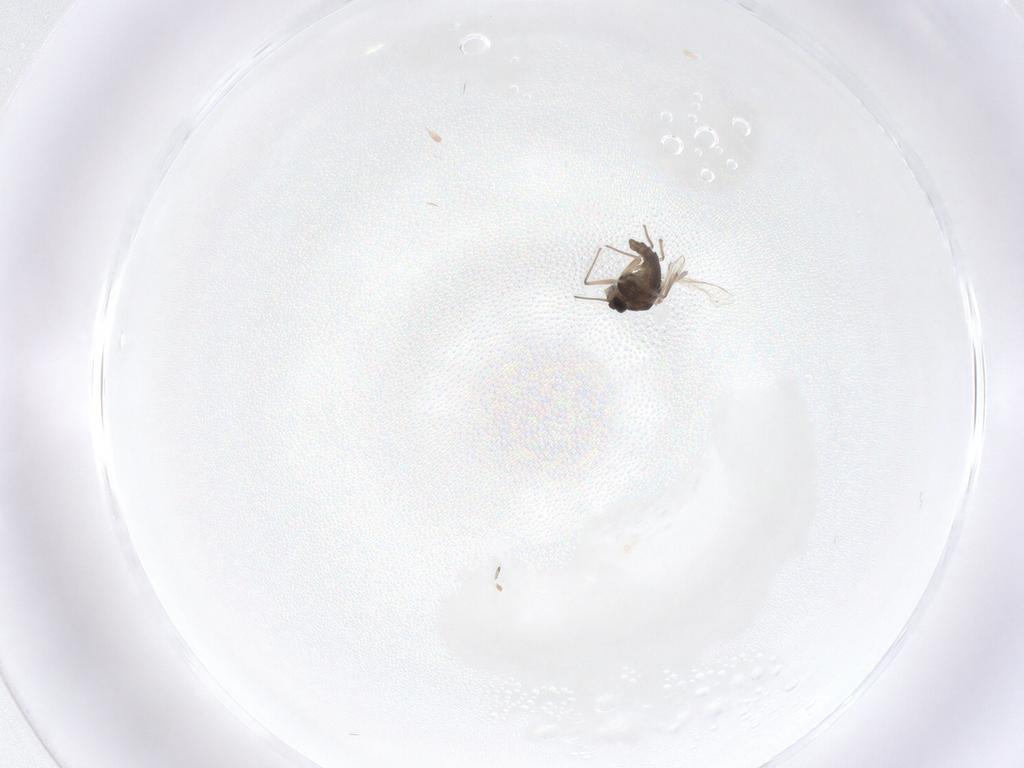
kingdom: Animalia
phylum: Arthropoda
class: Insecta
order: Diptera
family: Chironomidae
